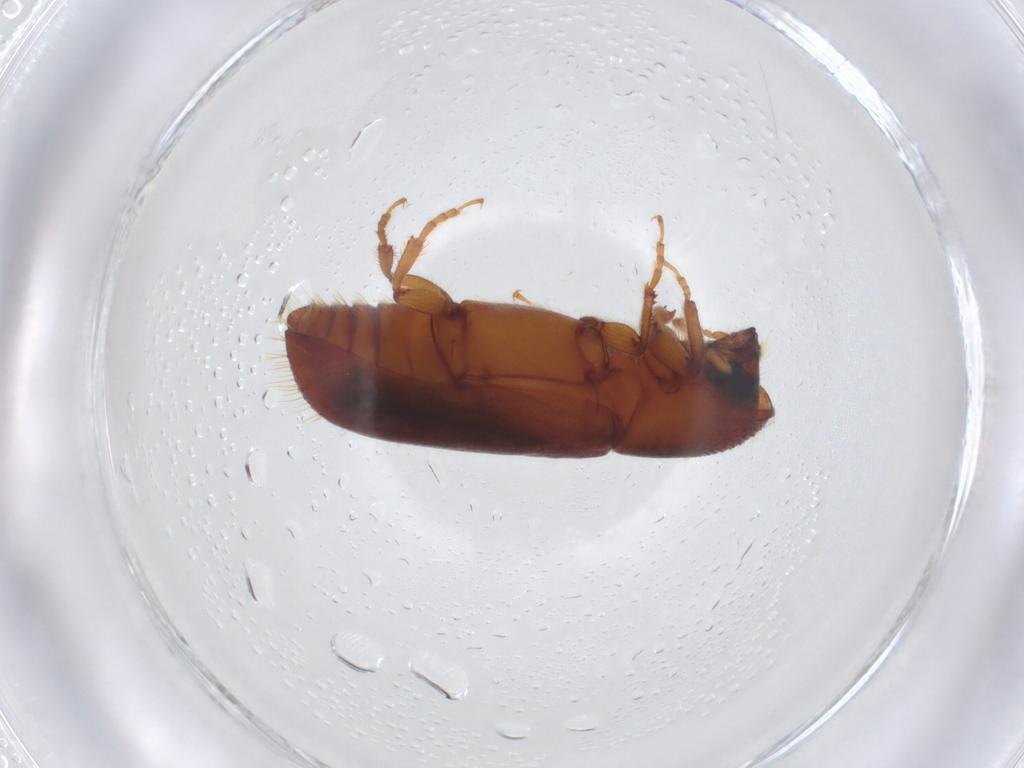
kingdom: Animalia
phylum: Arthropoda
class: Insecta
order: Coleoptera
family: Curculionidae
